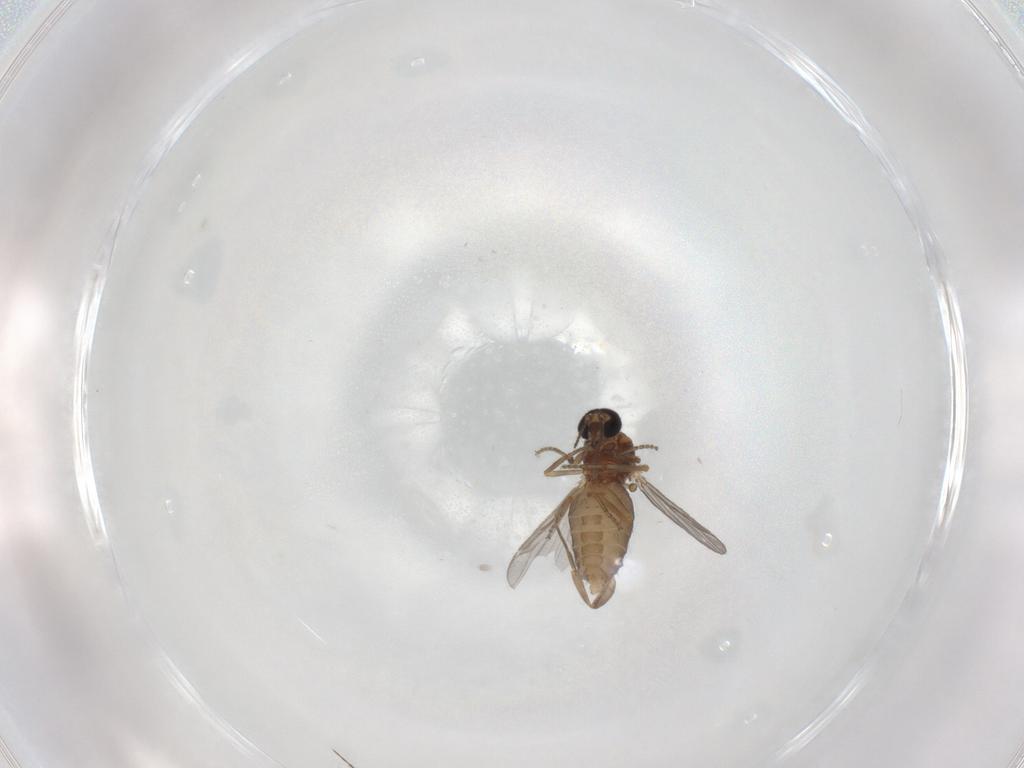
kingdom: Animalia
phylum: Arthropoda
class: Insecta
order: Diptera
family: Ceratopogonidae
